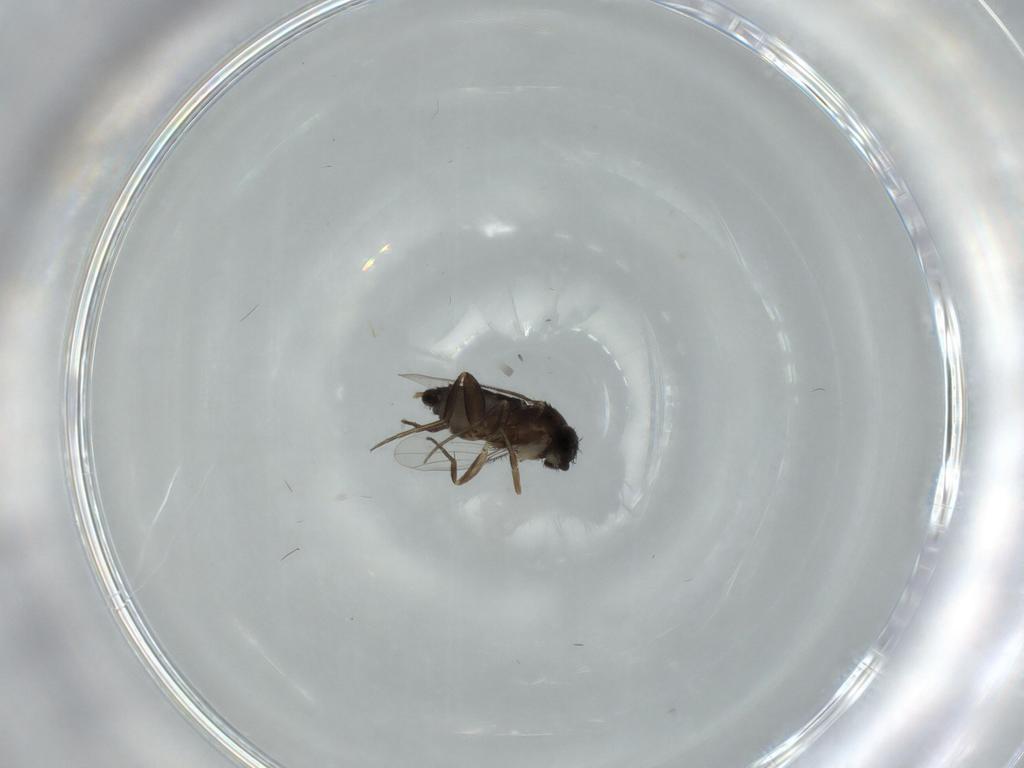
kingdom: Animalia
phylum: Arthropoda
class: Insecta
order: Diptera
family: Phoridae
